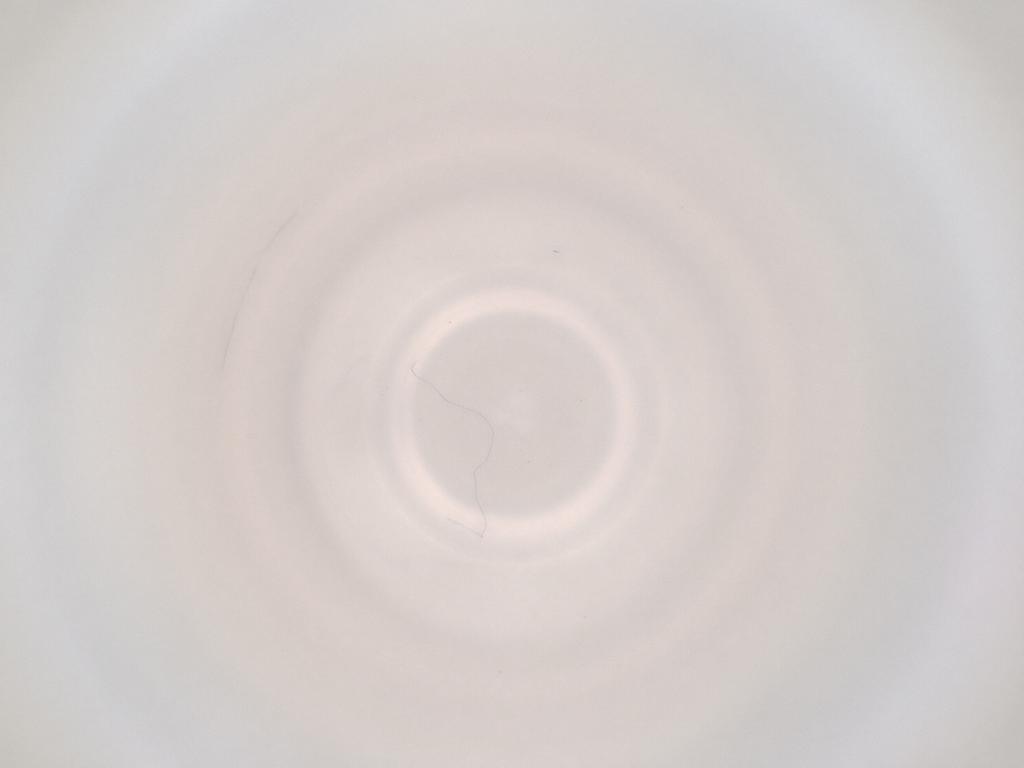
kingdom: Animalia
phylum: Arthropoda
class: Insecta
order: Diptera
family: Cecidomyiidae
